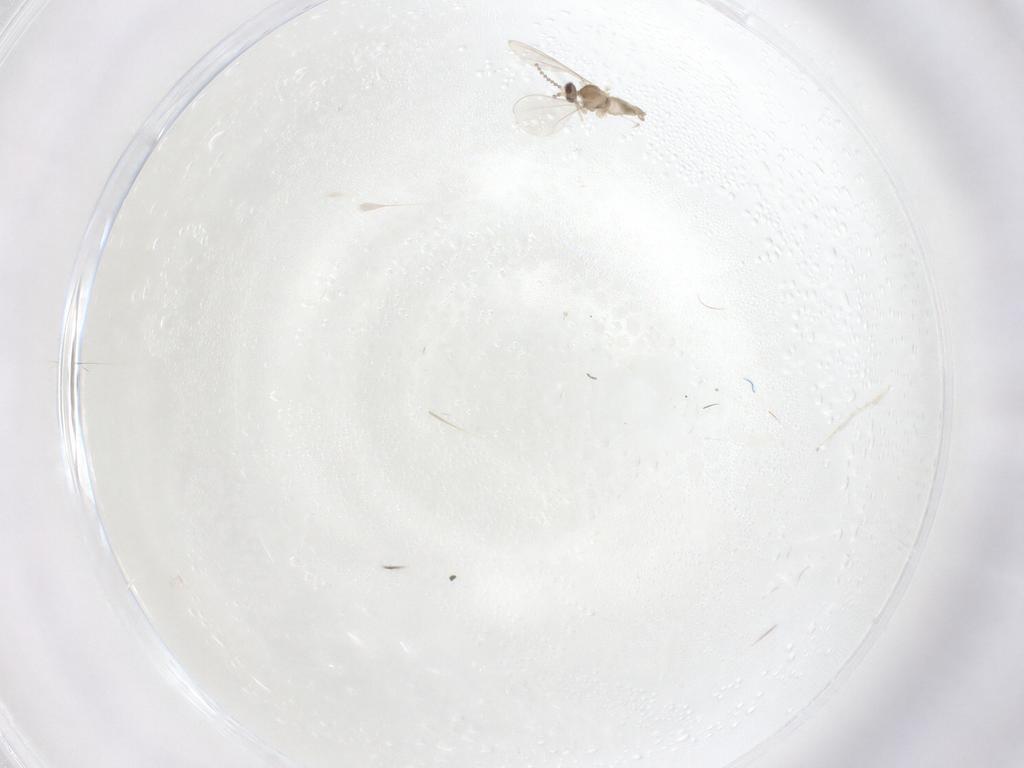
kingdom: Animalia
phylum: Arthropoda
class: Insecta
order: Diptera
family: Cecidomyiidae
